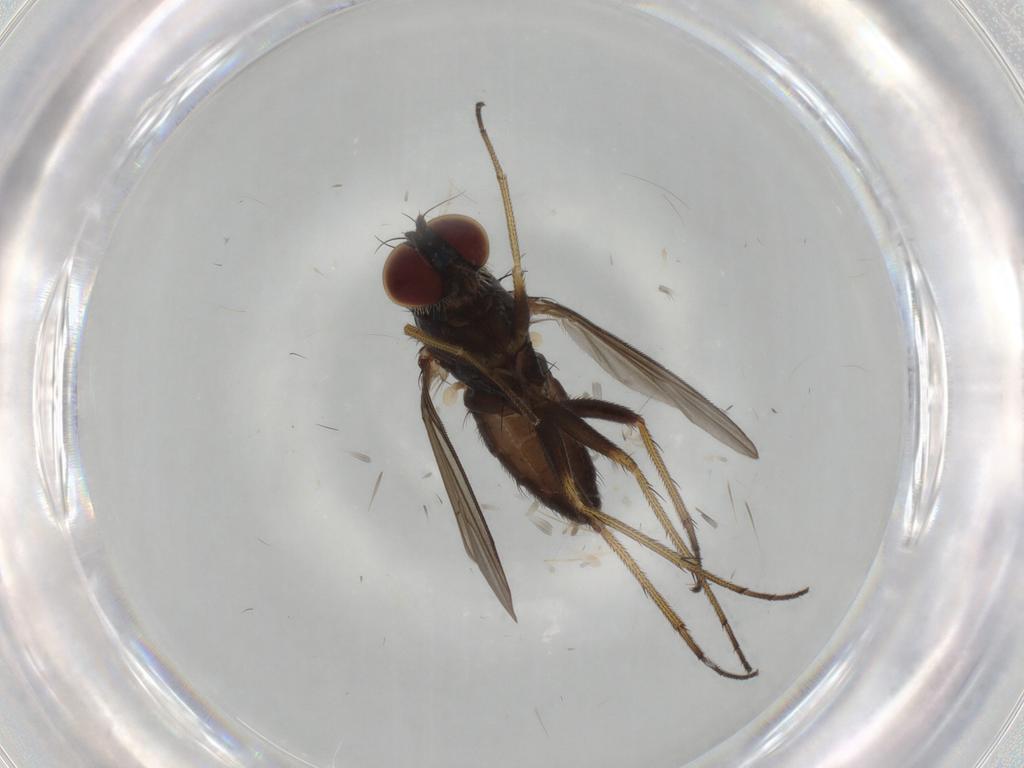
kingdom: Animalia
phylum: Arthropoda
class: Insecta
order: Diptera
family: Dolichopodidae
